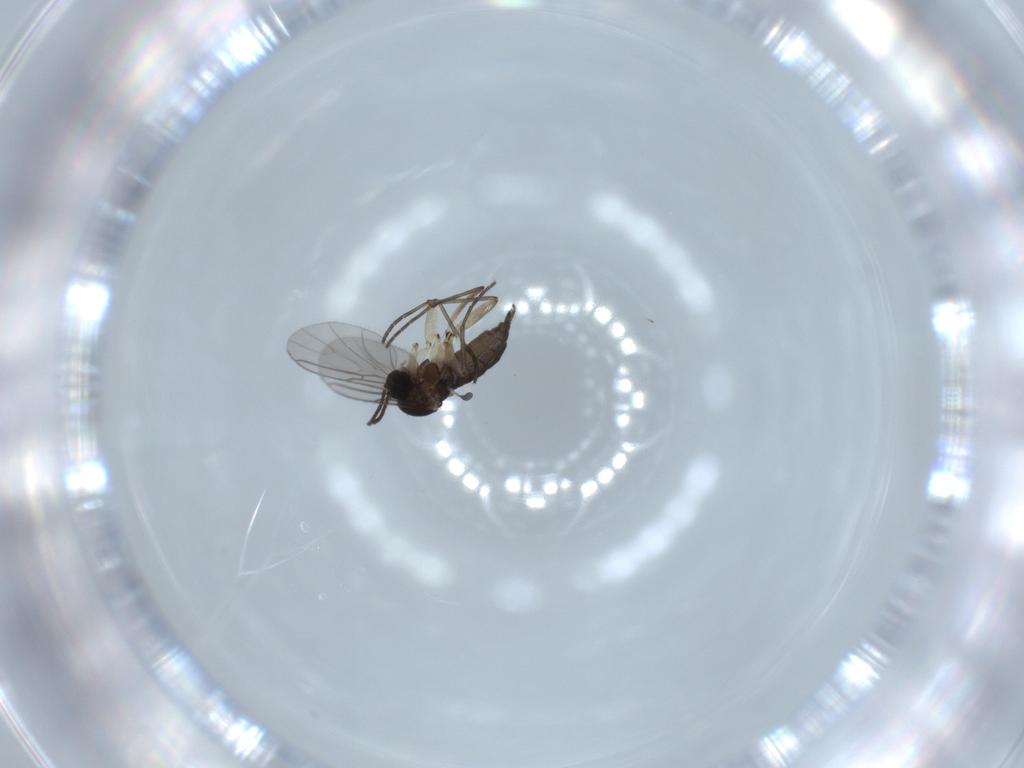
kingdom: Animalia
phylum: Arthropoda
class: Insecta
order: Diptera
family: Sciaridae
